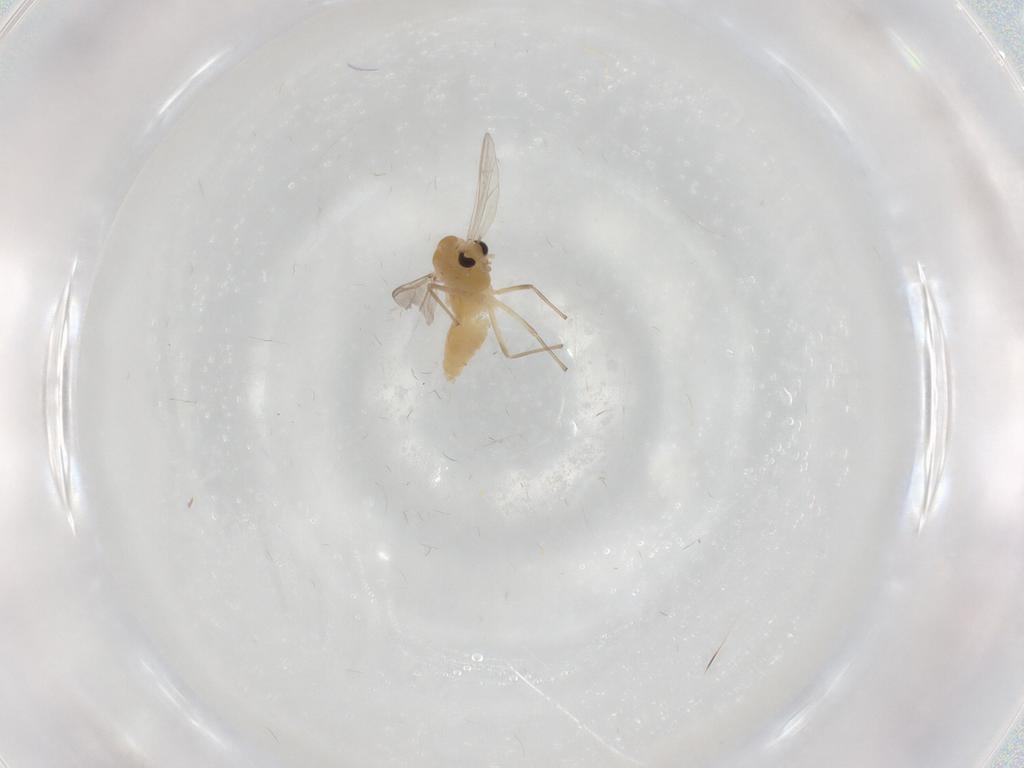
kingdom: Animalia
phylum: Arthropoda
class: Insecta
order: Diptera
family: Chironomidae
